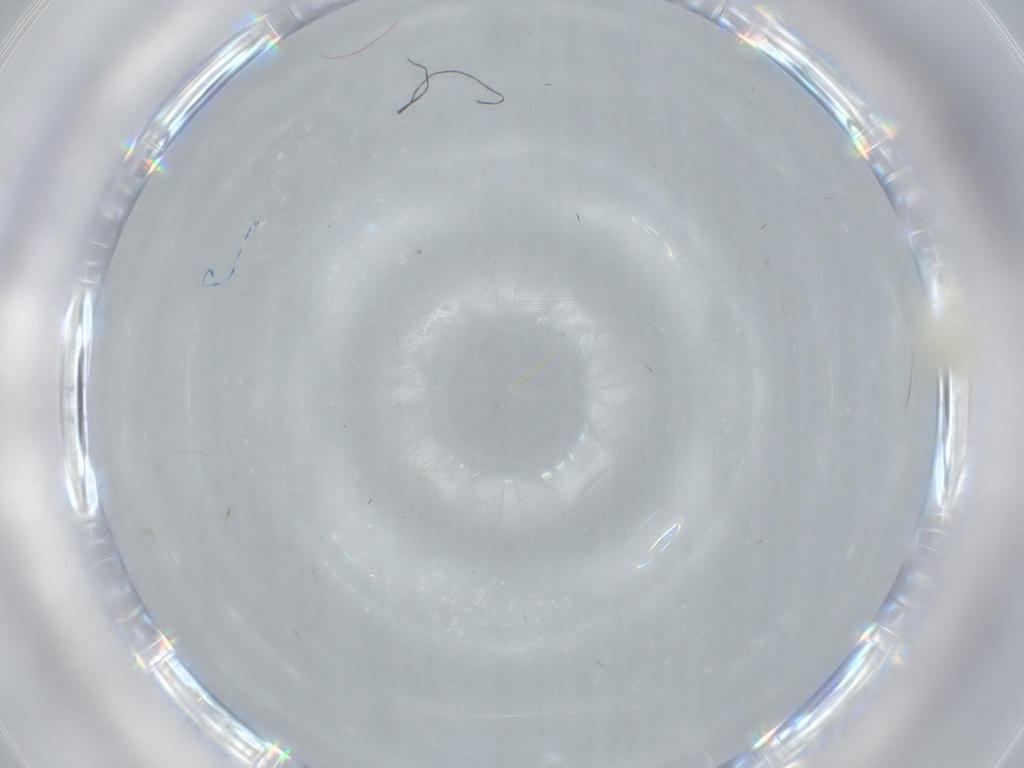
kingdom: Animalia
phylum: Arthropoda
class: Insecta
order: Hemiptera
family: Aleyrodidae
